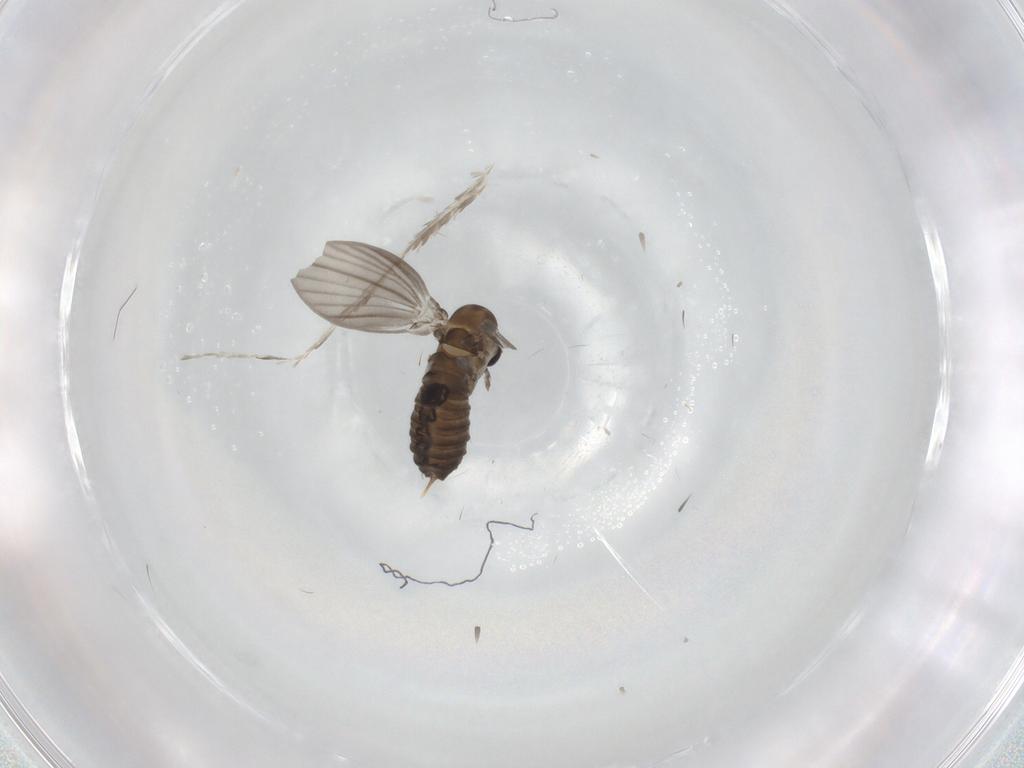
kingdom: Animalia
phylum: Arthropoda
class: Insecta
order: Diptera
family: Psychodidae
